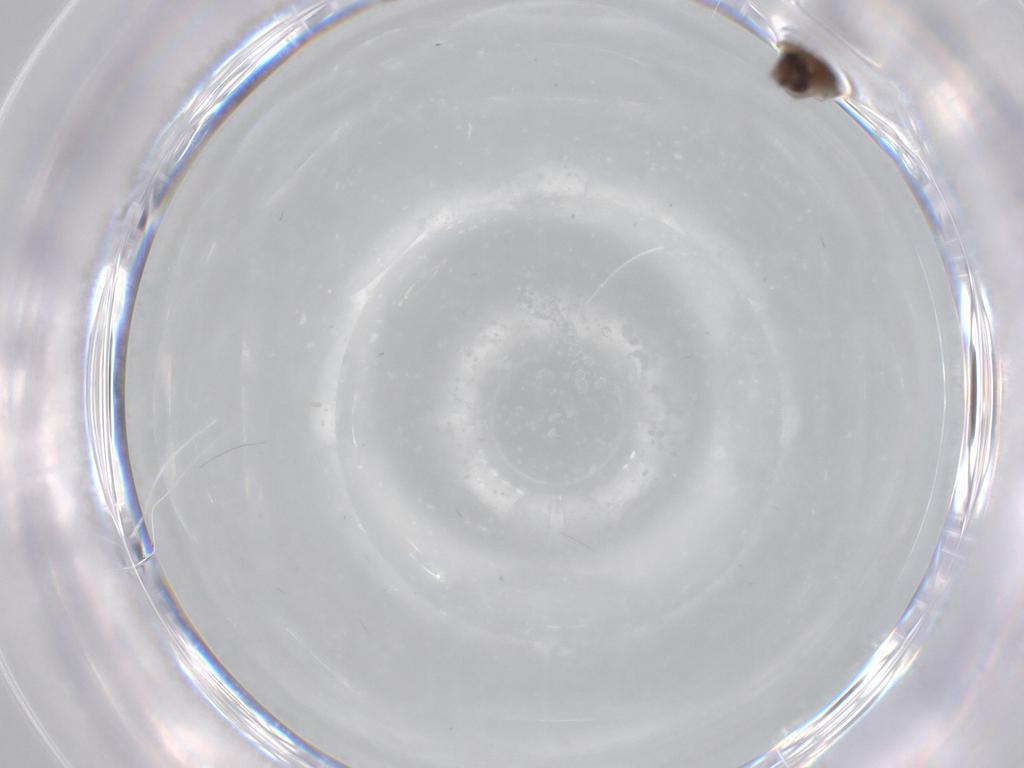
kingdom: Animalia
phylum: Arthropoda
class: Insecta
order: Diptera
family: Phoridae
